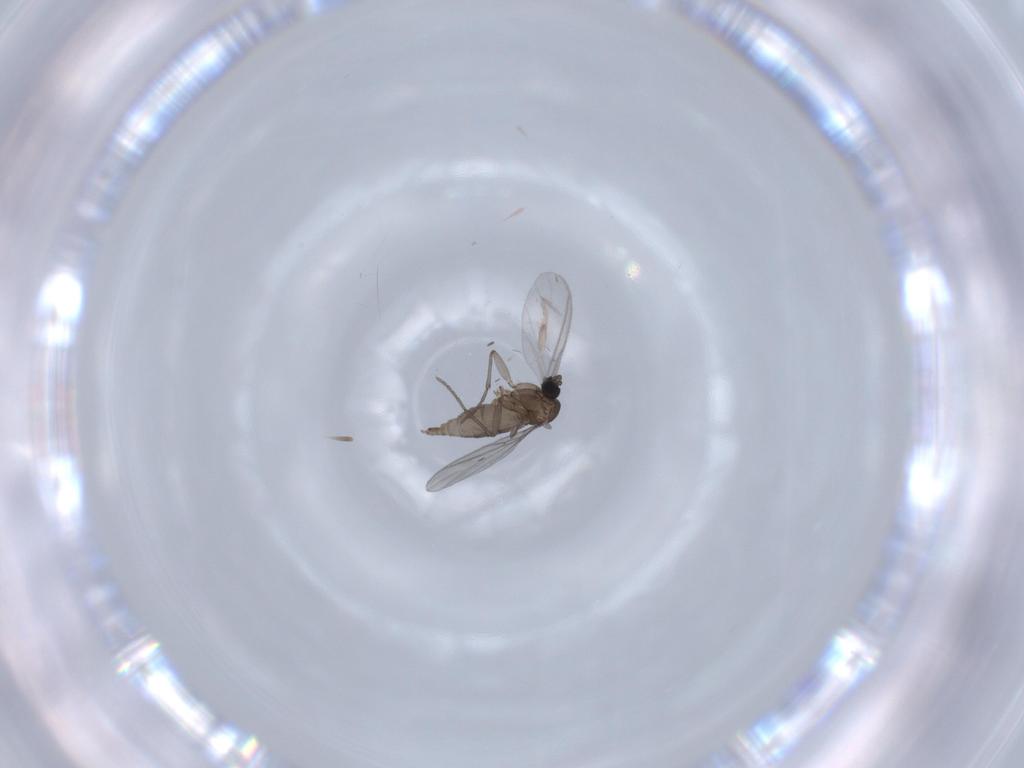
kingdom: Animalia
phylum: Arthropoda
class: Insecta
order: Diptera
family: Sciaridae
